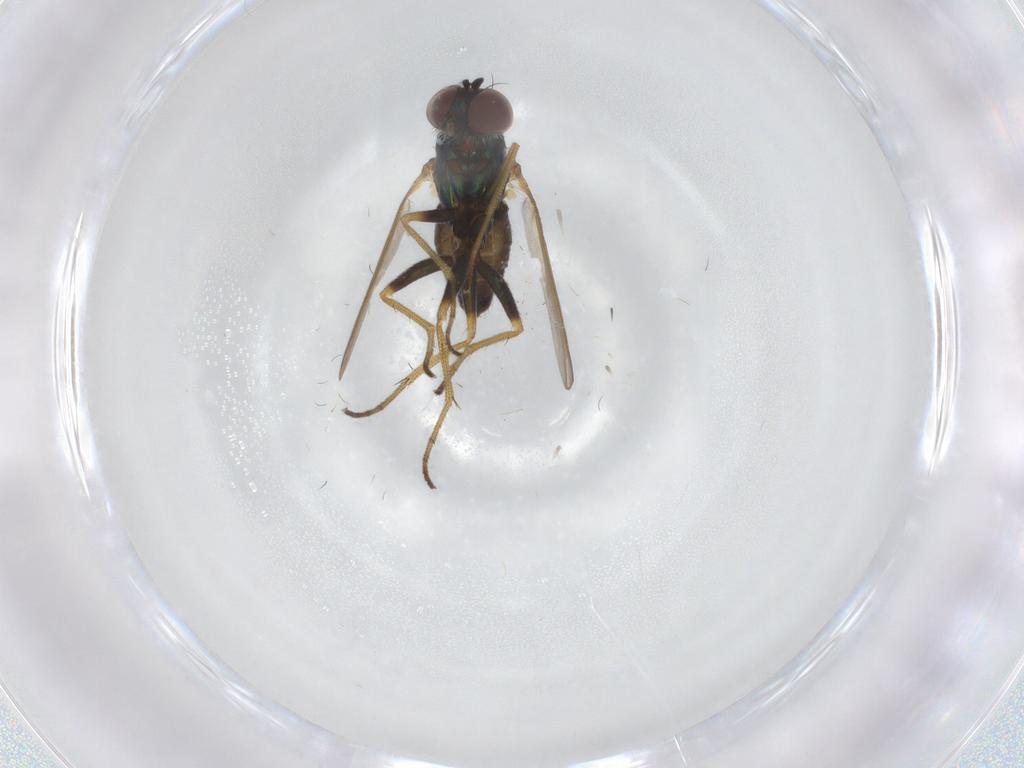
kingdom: Animalia
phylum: Arthropoda
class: Insecta
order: Diptera
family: Dolichopodidae
